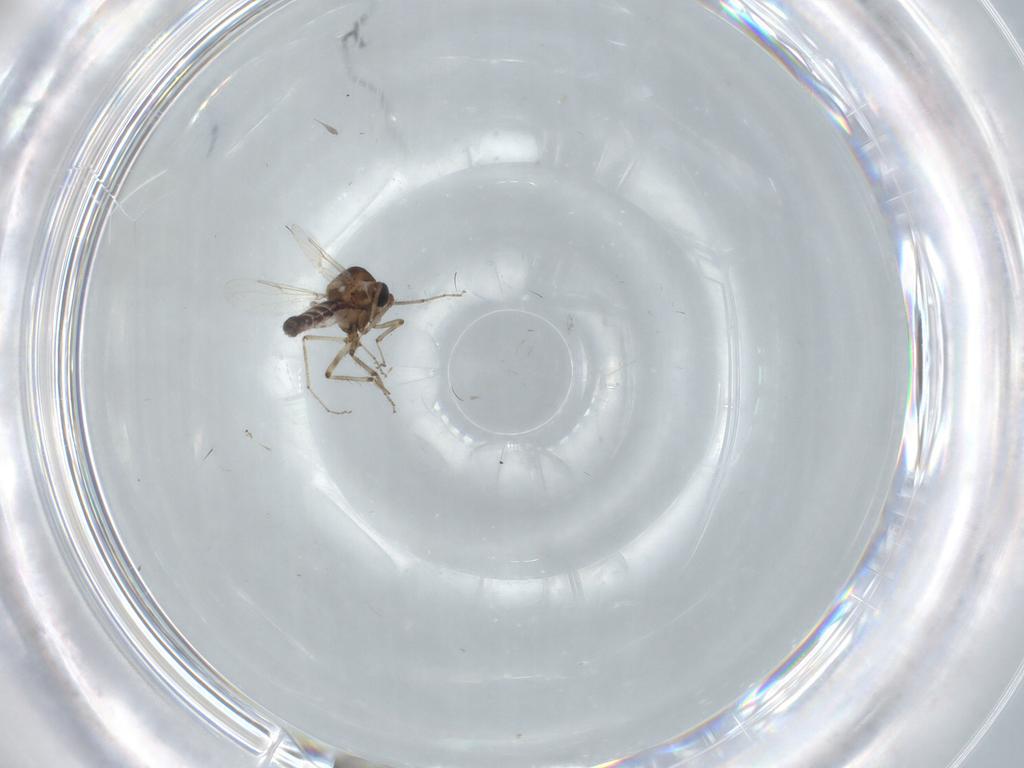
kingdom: Animalia
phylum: Arthropoda
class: Insecta
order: Diptera
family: Ceratopogonidae
